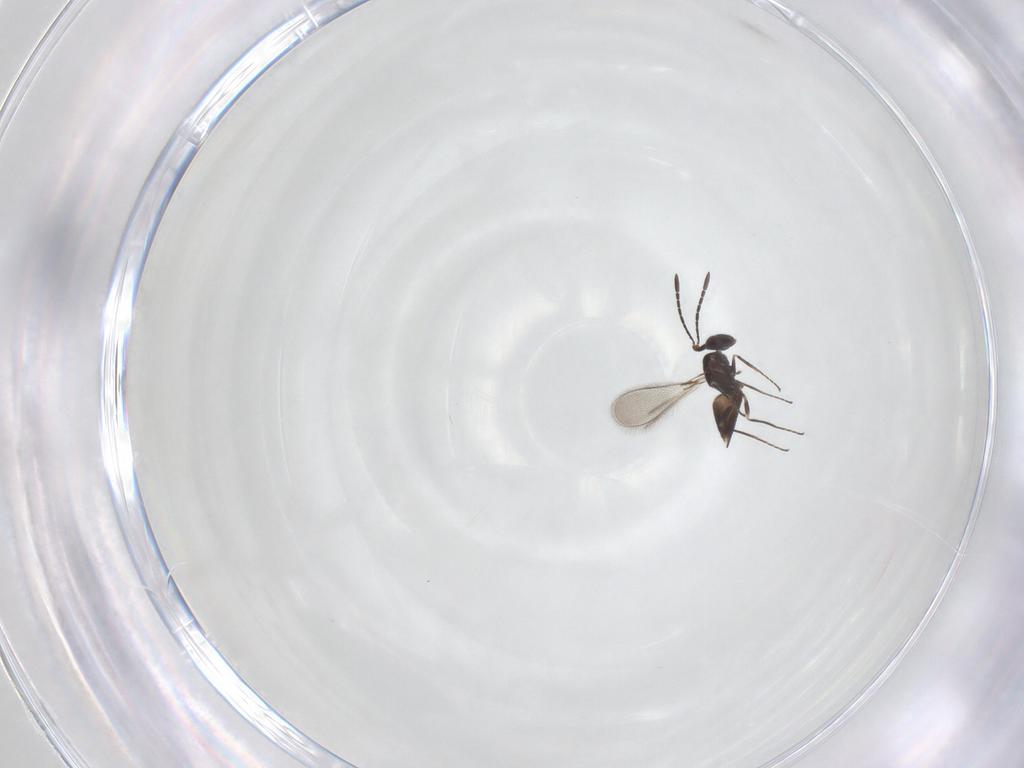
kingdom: Animalia
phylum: Arthropoda
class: Insecta
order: Hymenoptera
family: Mymaridae
